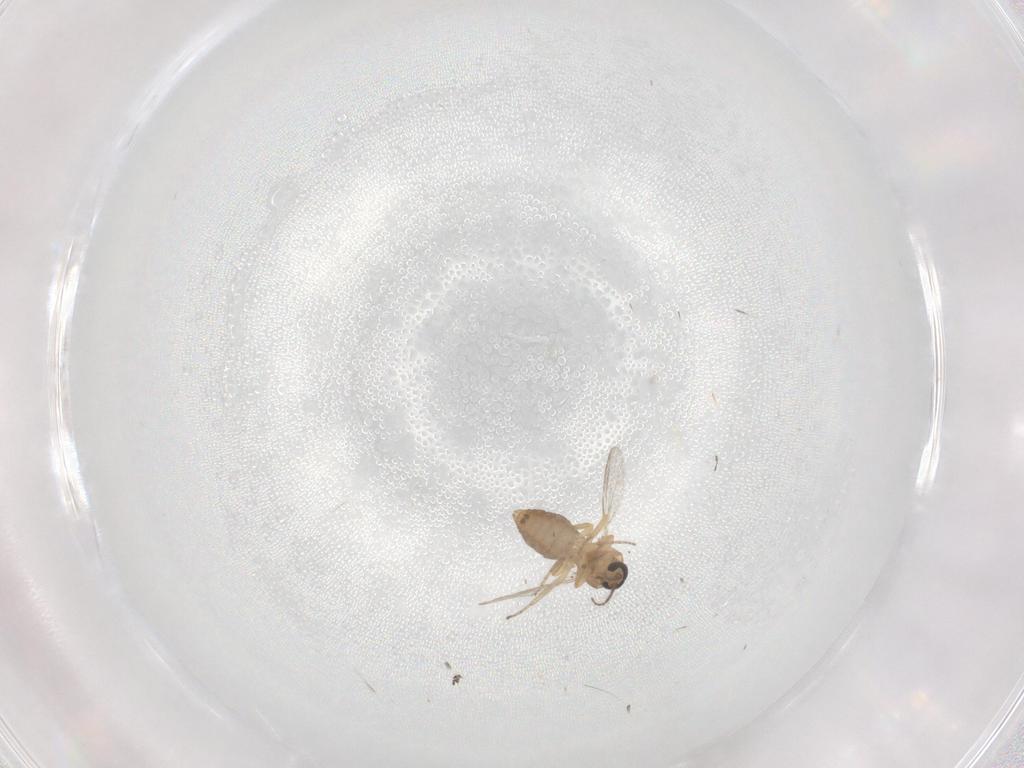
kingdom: Animalia
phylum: Arthropoda
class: Insecta
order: Diptera
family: Ceratopogonidae
